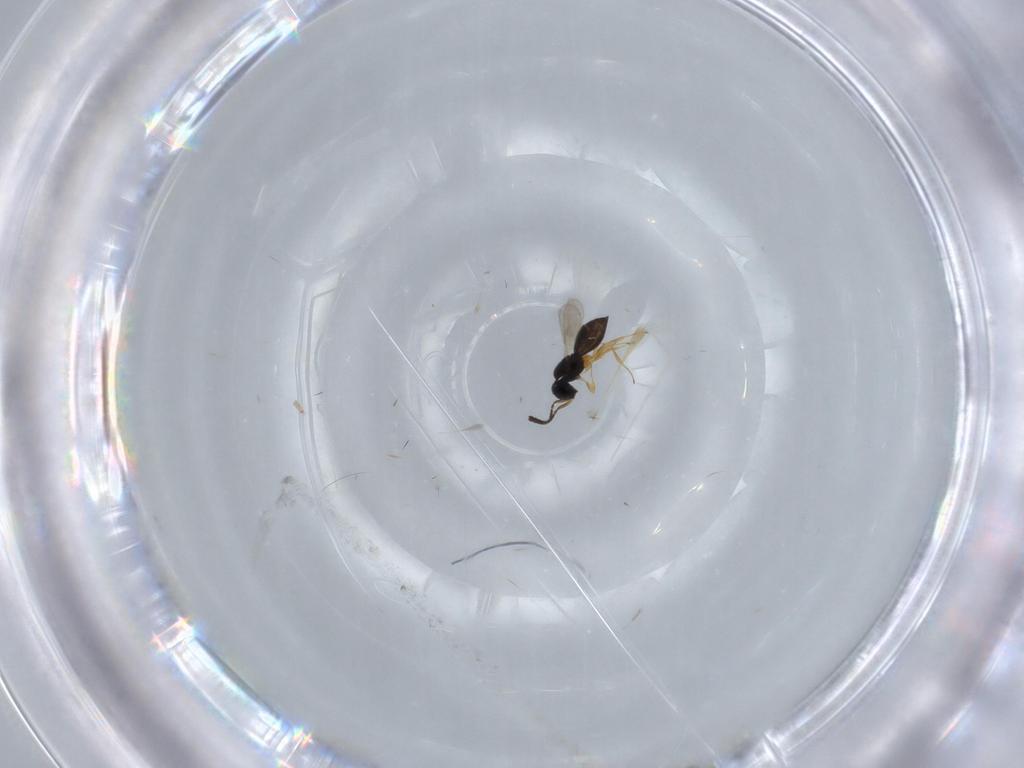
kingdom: Animalia
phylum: Arthropoda
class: Insecta
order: Hymenoptera
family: Scelionidae
